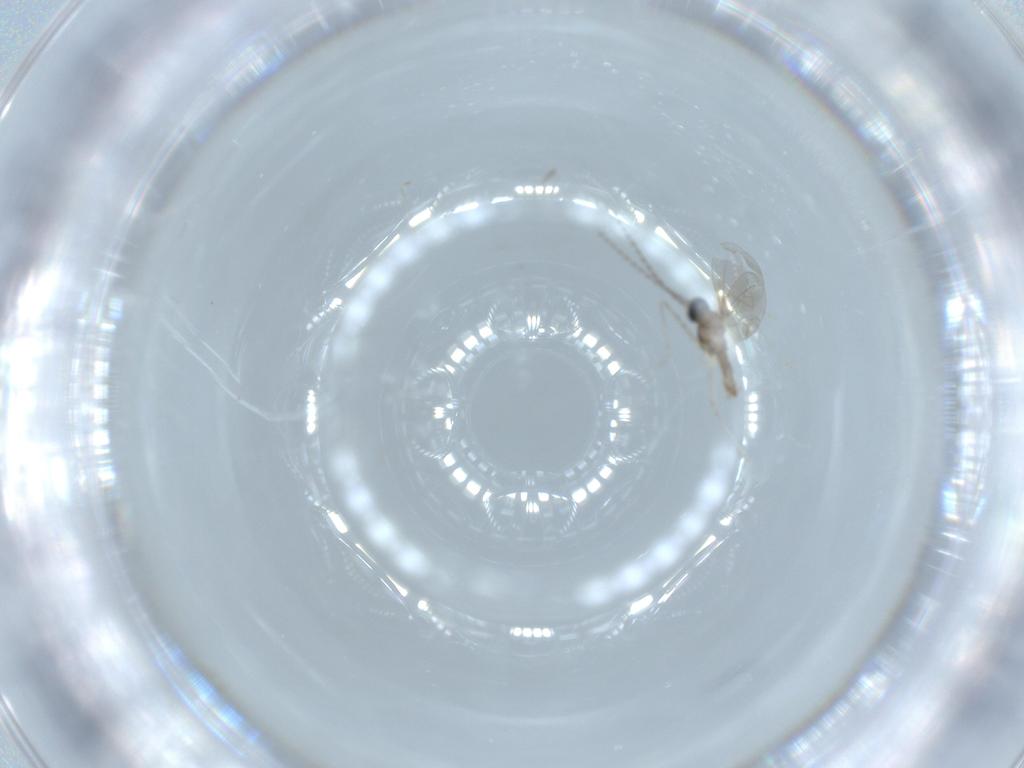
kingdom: Animalia
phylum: Arthropoda
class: Insecta
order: Diptera
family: Cecidomyiidae
